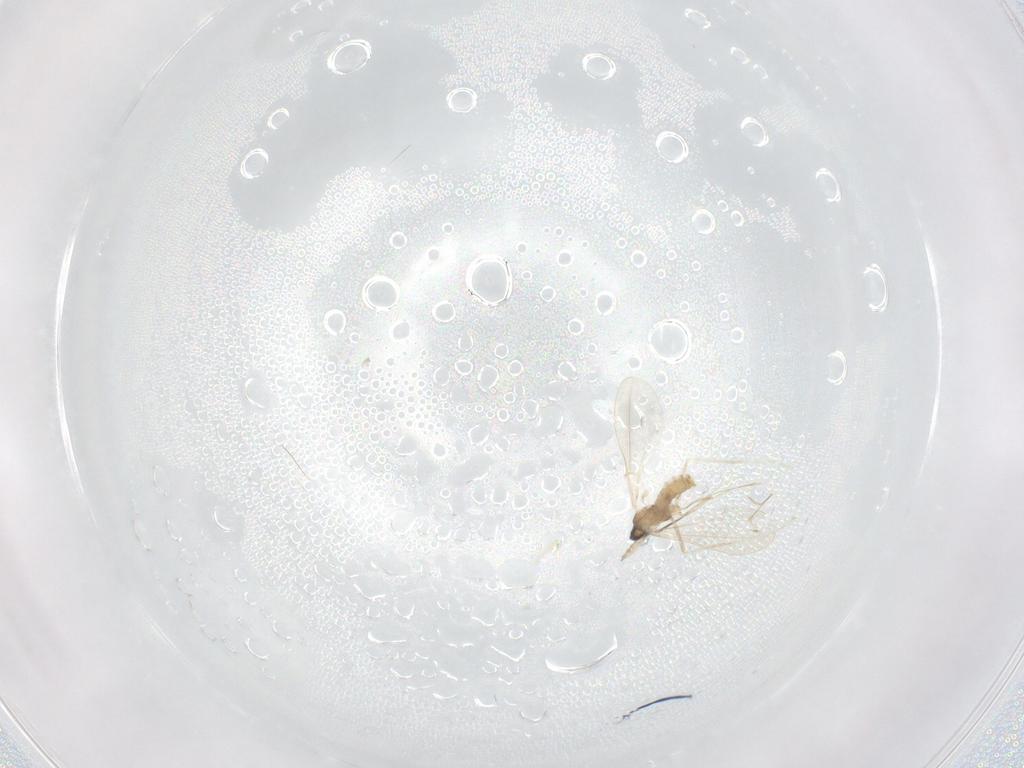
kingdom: Animalia
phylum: Arthropoda
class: Insecta
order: Diptera
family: Cecidomyiidae
